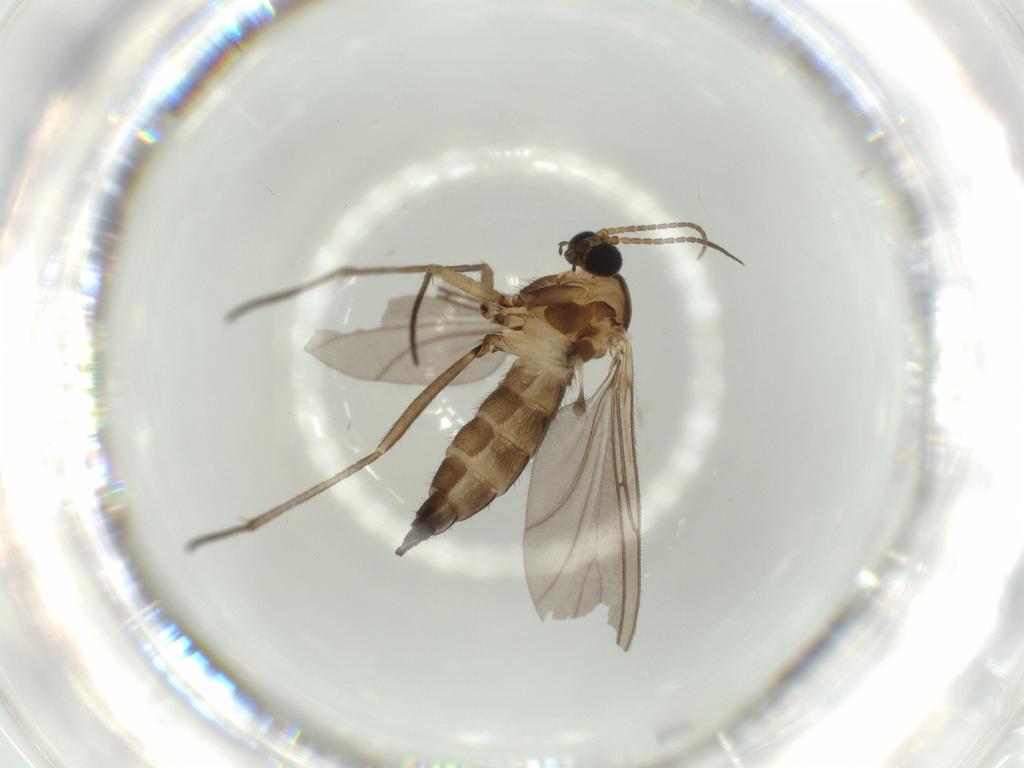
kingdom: Animalia
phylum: Arthropoda
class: Insecta
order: Diptera
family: Sciaridae
